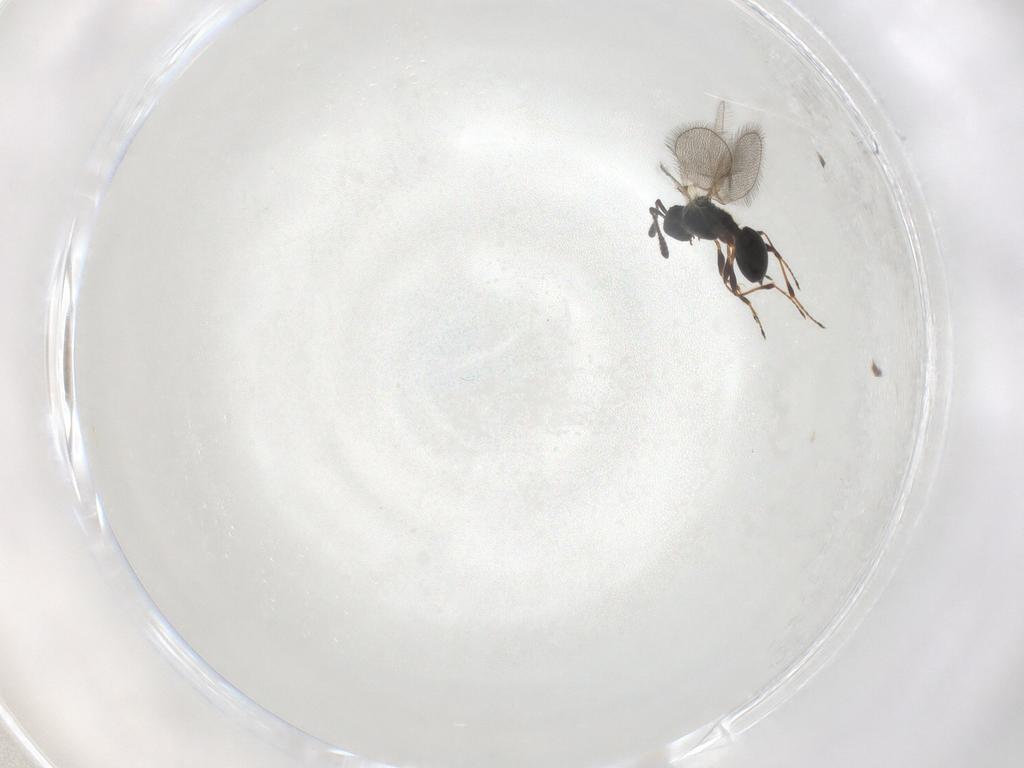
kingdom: Animalia
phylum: Arthropoda
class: Insecta
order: Hymenoptera
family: Diapriidae
